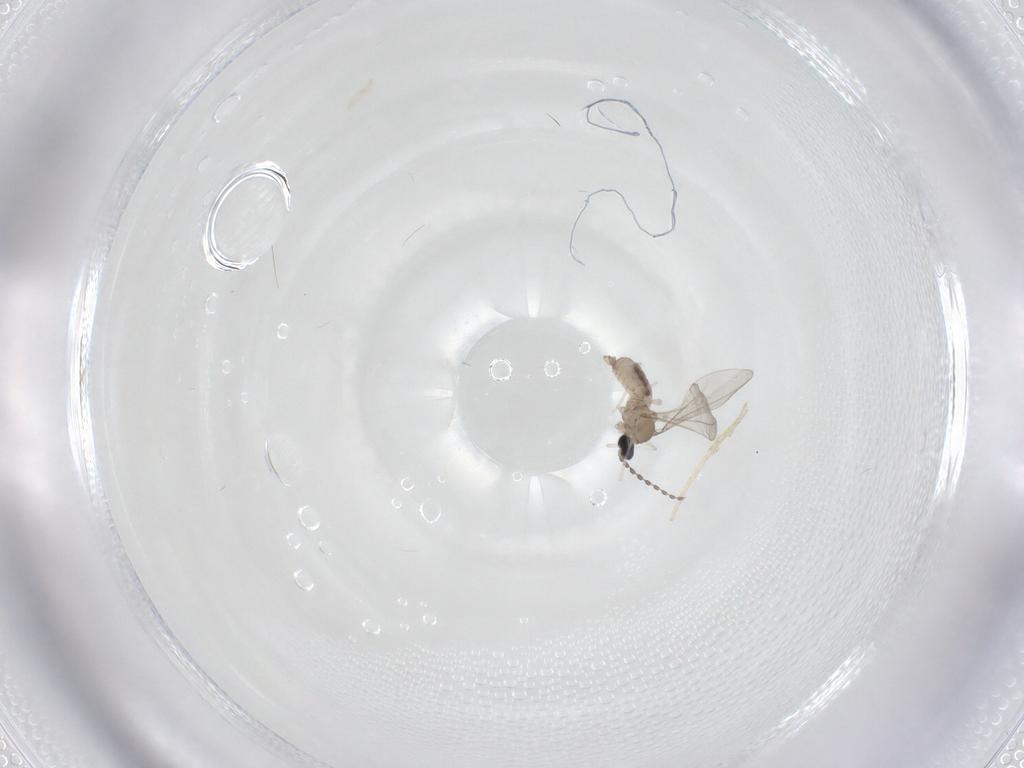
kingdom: Animalia
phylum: Arthropoda
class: Insecta
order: Diptera
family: Cecidomyiidae
